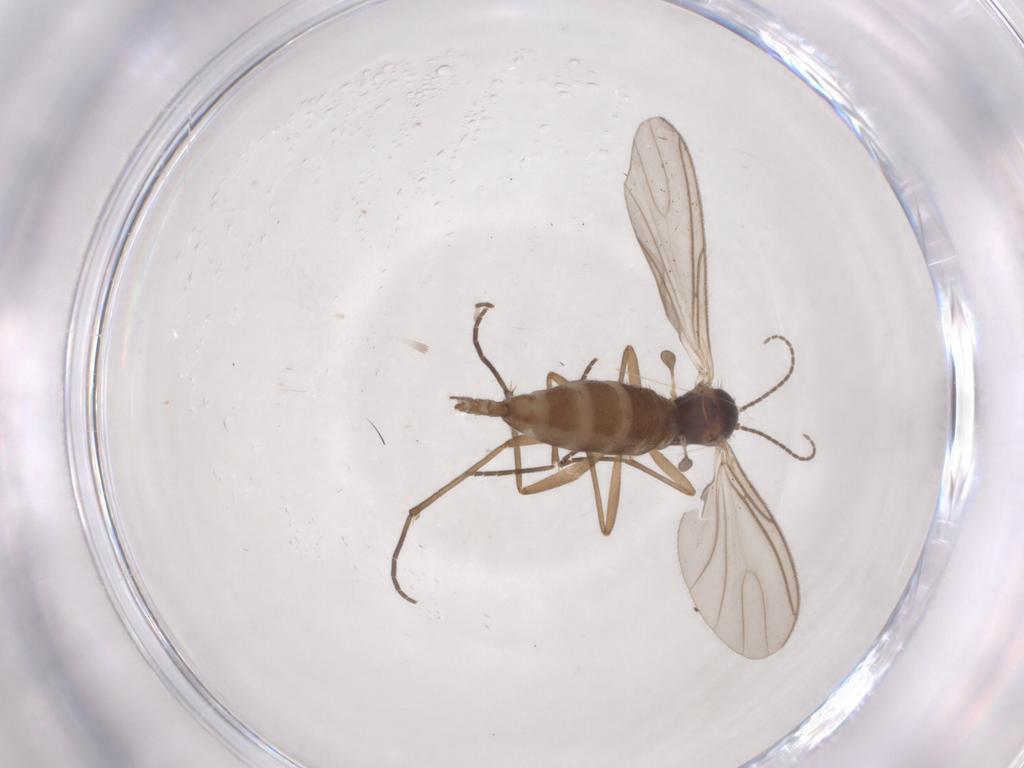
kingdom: Animalia
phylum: Arthropoda
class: Insecta
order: Diptera
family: Sciaridae
